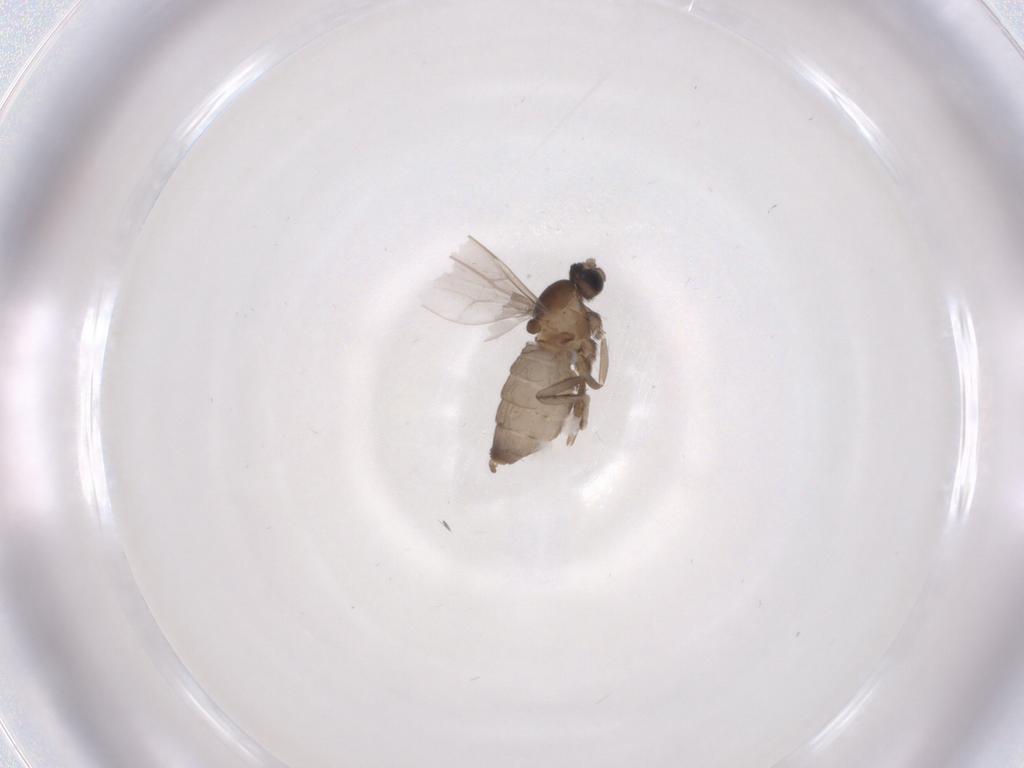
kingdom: Animalia
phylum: Arthropoda
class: Insecta
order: Diptera
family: Cecidomyiidae
